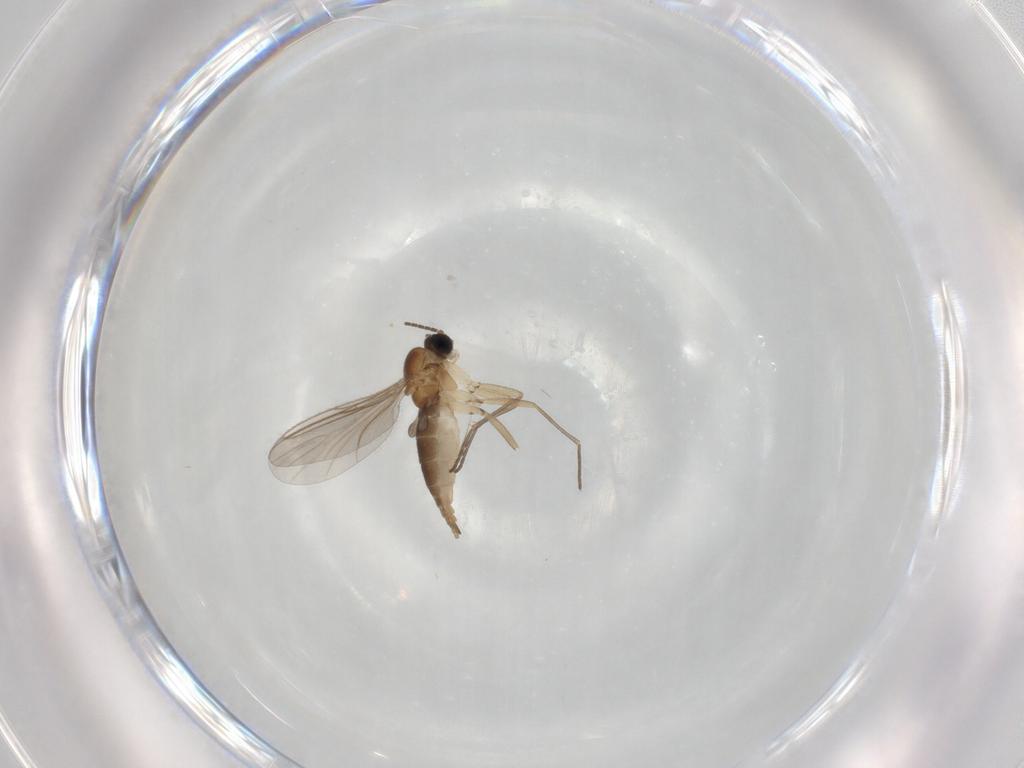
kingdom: Animalia
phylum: Arthropoda
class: Insecta
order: Diptera
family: Sciaridae
